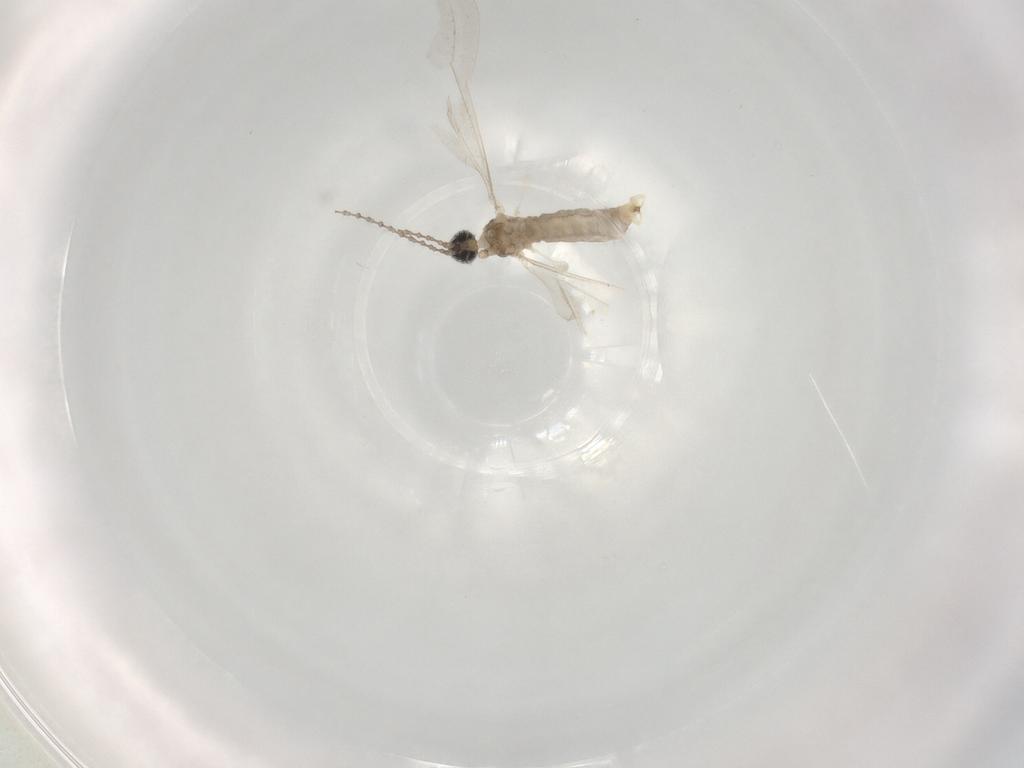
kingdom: Animalia
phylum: Arthropoda
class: Insecta
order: Diptera
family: Cecidomyiidae
